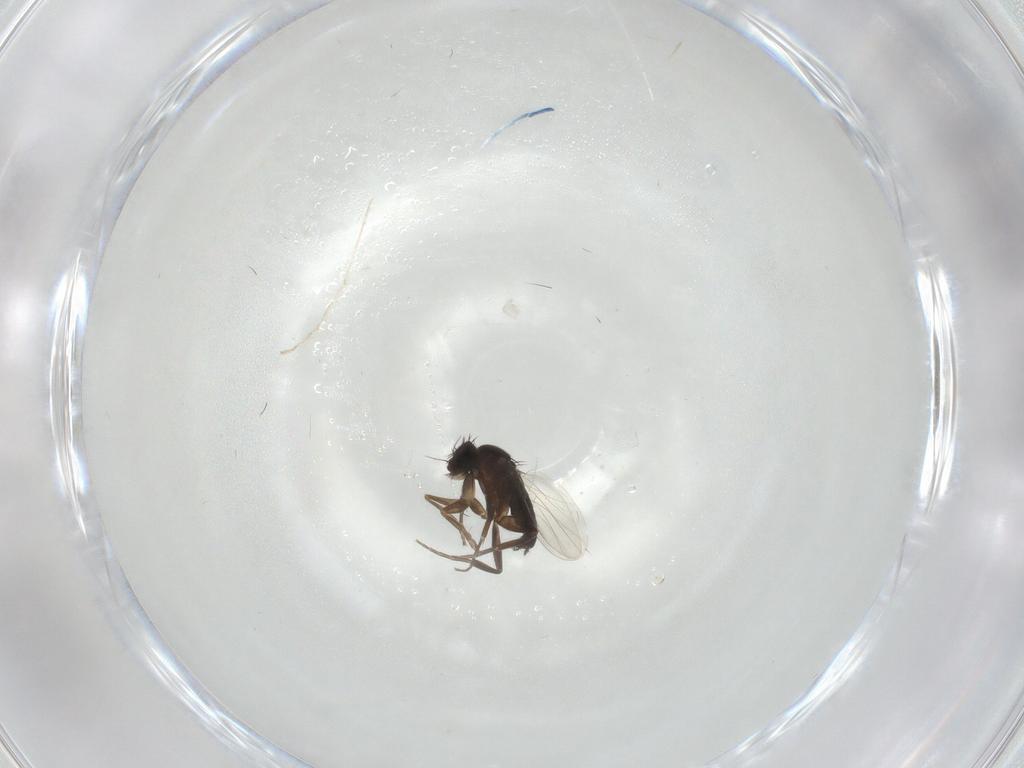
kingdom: Animalia
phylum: Arthropoda
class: Insecta
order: Diptera
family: Phoridae
